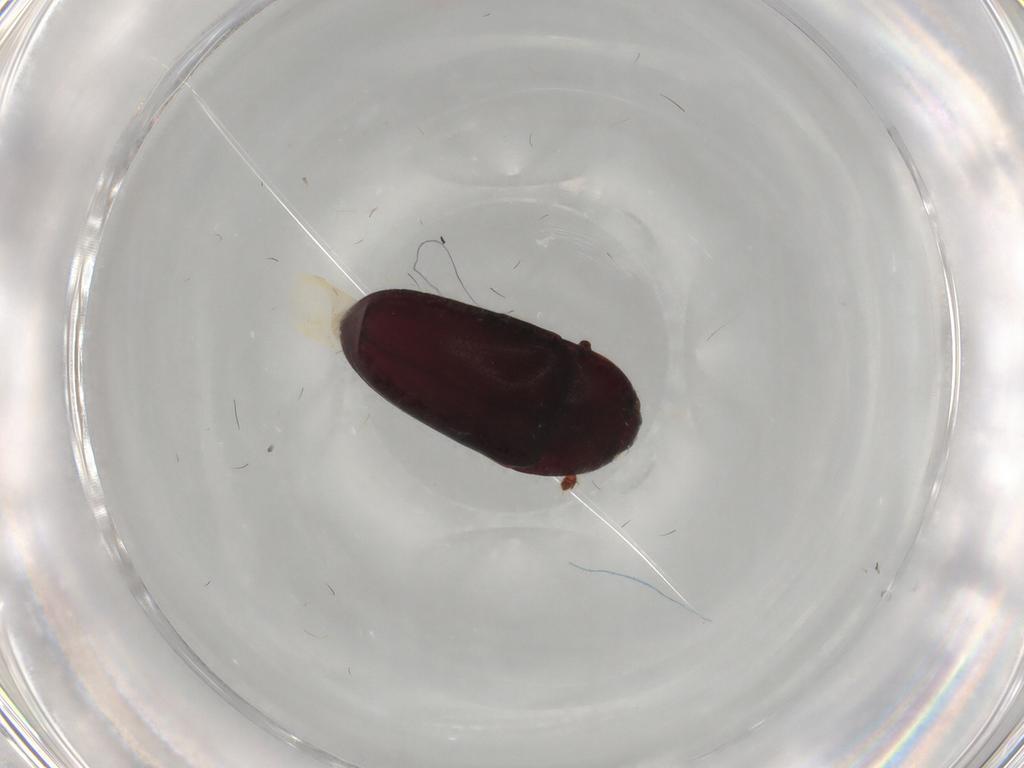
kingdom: Animalia
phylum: Arthropoda
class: Insecta
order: Coleoptera
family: Throscidae
